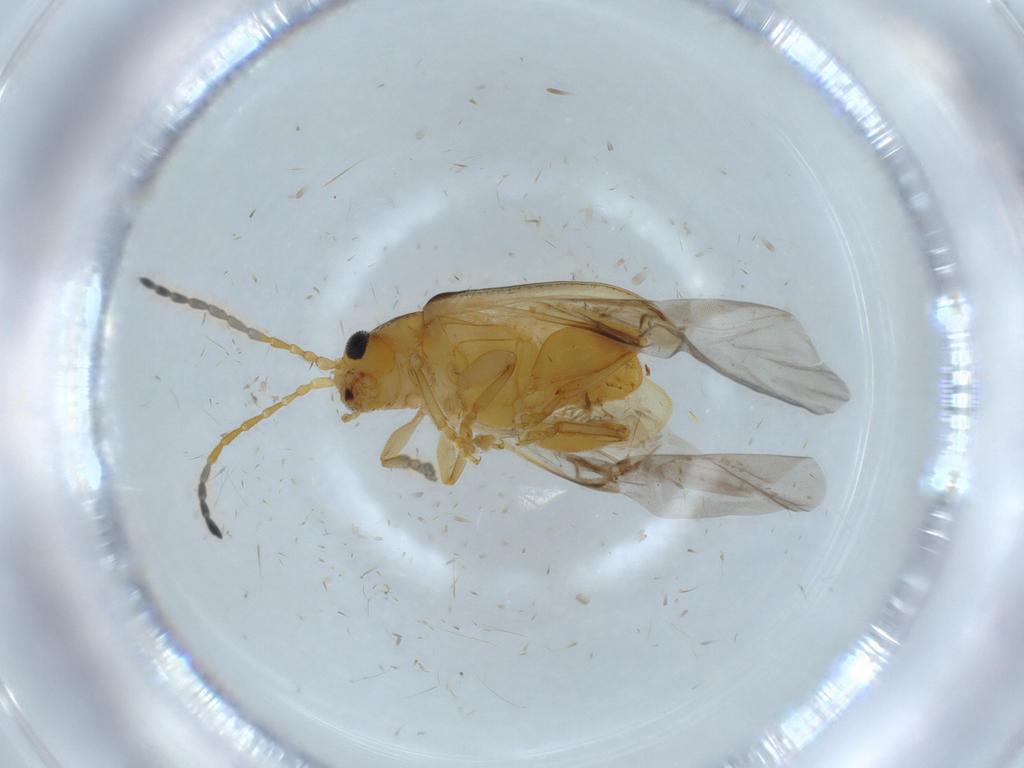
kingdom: Animalia
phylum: Arthropoda
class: Insecta
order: Coleoptera
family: Chrysomelidae
